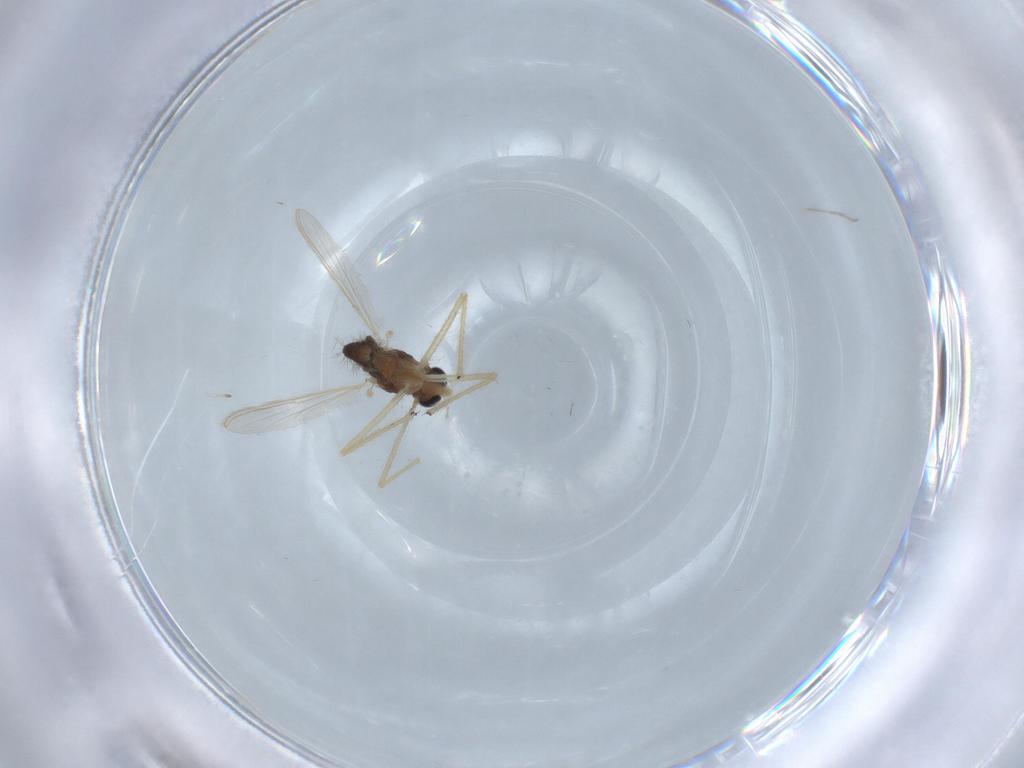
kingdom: Animalia
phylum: Arthropoda
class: Insecta
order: Diptera
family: Chironomidae
